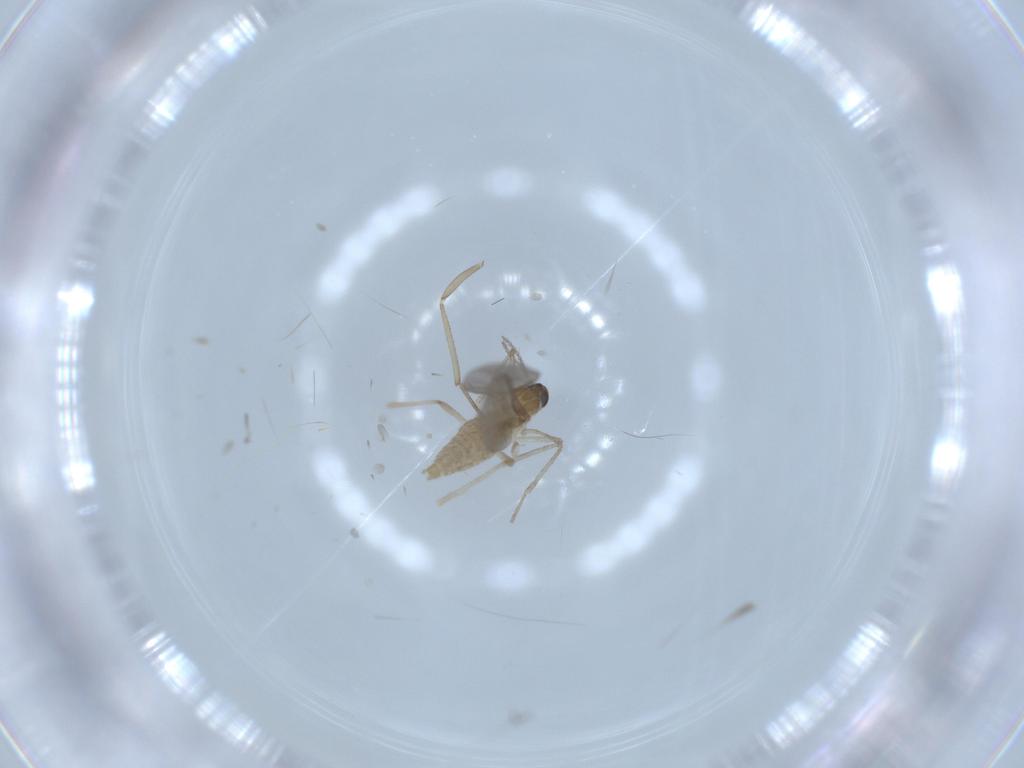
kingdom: Animalia
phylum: Arthropoda
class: Insecta
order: Diptera
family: Cecidomyiidae
